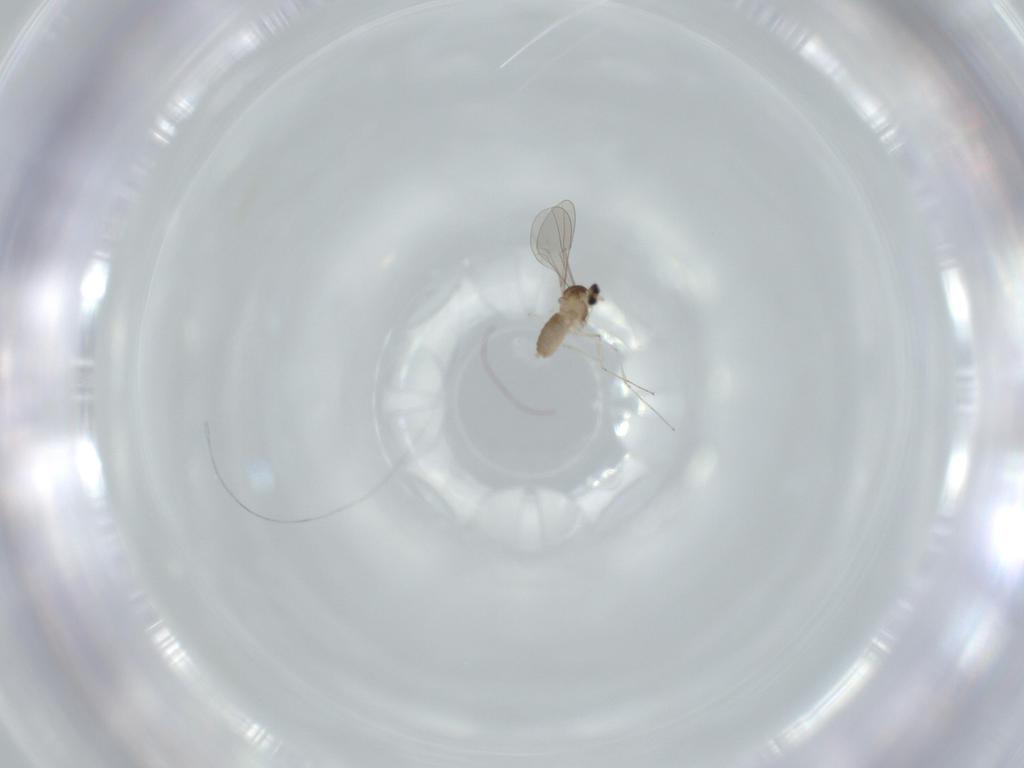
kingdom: Animalia
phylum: Arthropoda
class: Insecta
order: Diptera
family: Cecidomyiidae
